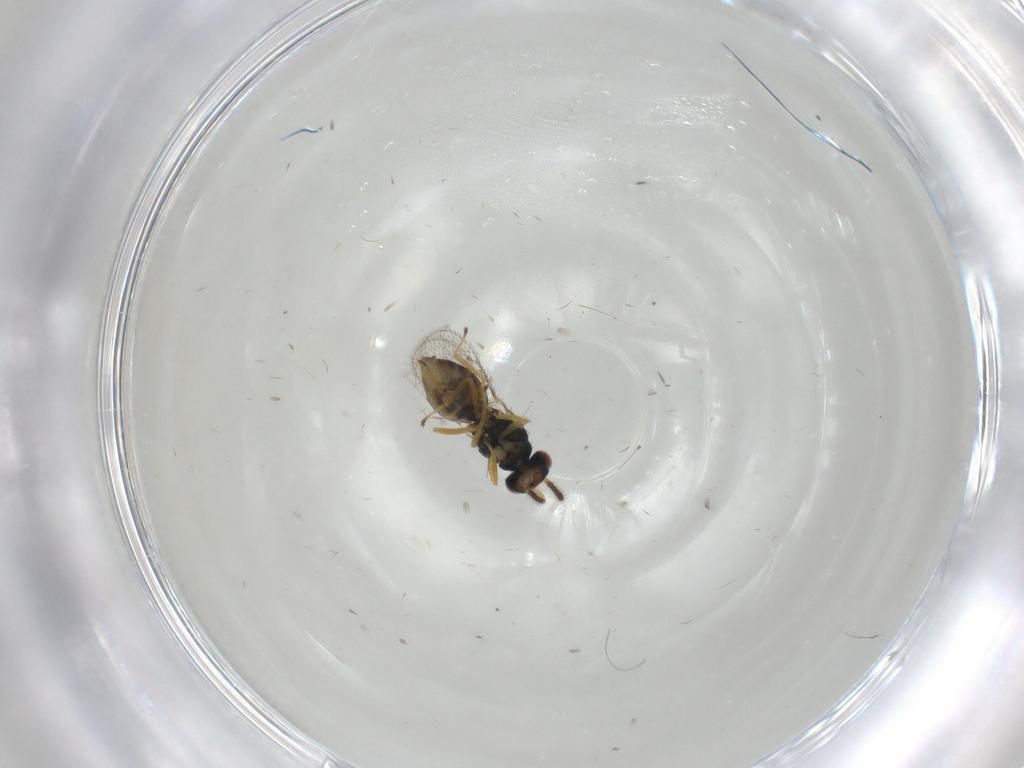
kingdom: Animalia
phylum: Arthropoda
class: Insecta
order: Hymenoptera
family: Eulophidae
